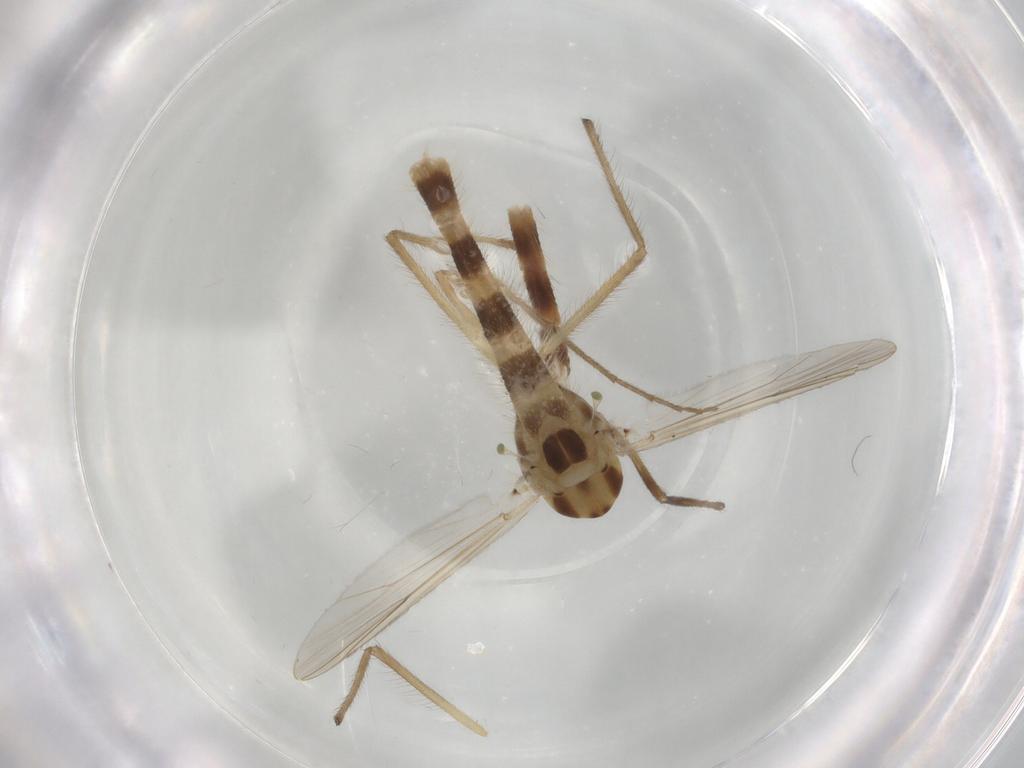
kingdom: Animalia
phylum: Arthropoda
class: Insecta
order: Diptera
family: Chironomidae
